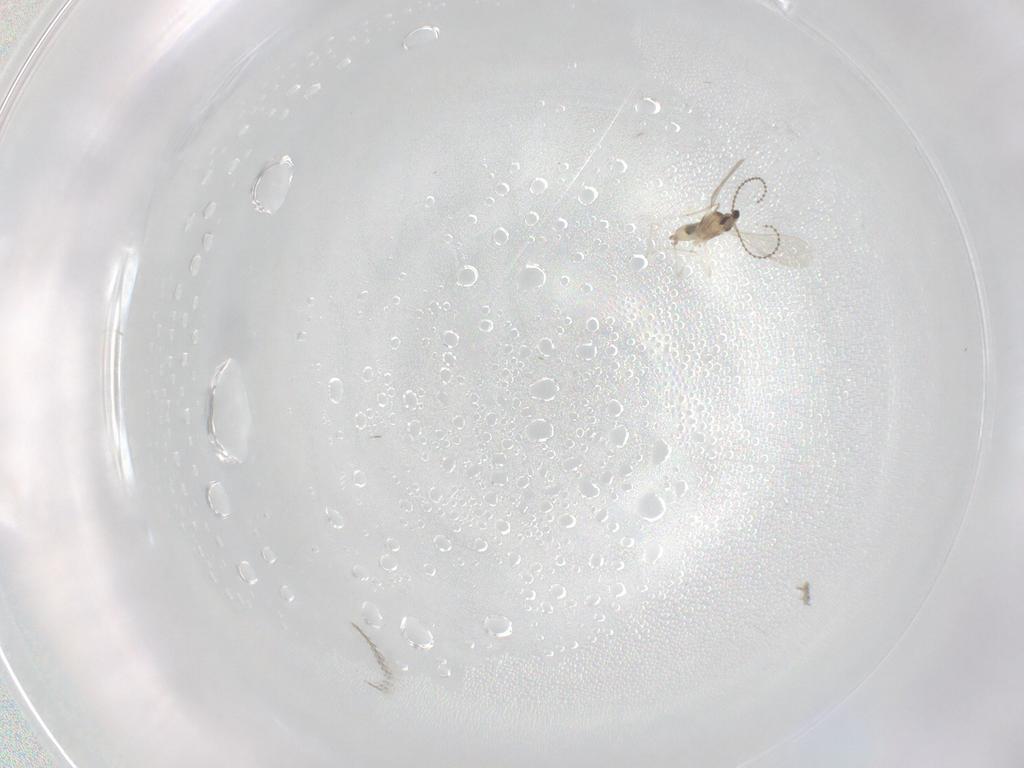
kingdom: Animalia
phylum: Arthropoda
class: Insecta
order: Diptera
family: Cecidomyiidae
